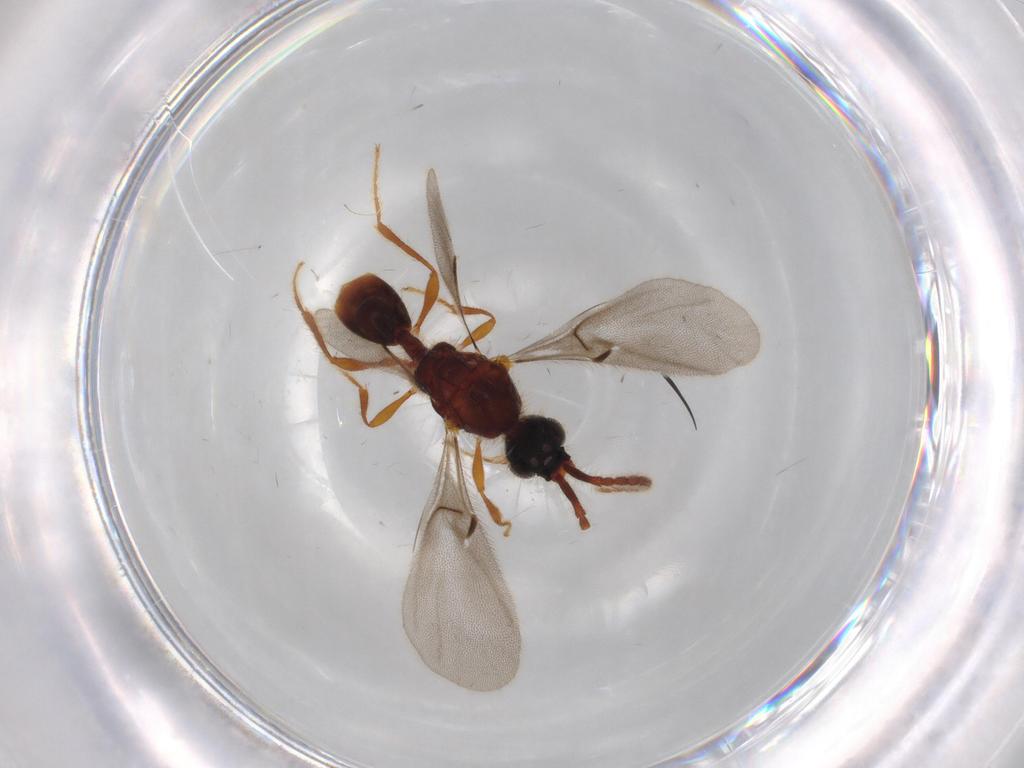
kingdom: Animalia
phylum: Arthropoda
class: Insecta
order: Hymenoptera
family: Diapriidae
